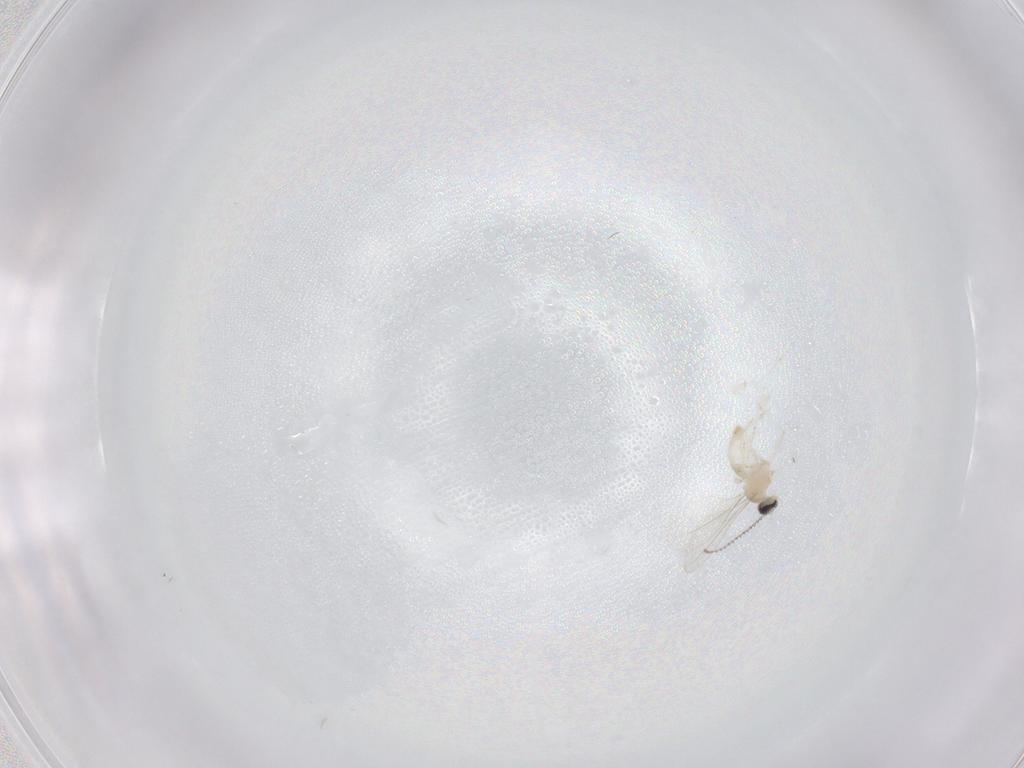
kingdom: Animalia
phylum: Arthropoda
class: Insecta
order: Diptera
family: Cecidomyiidae
